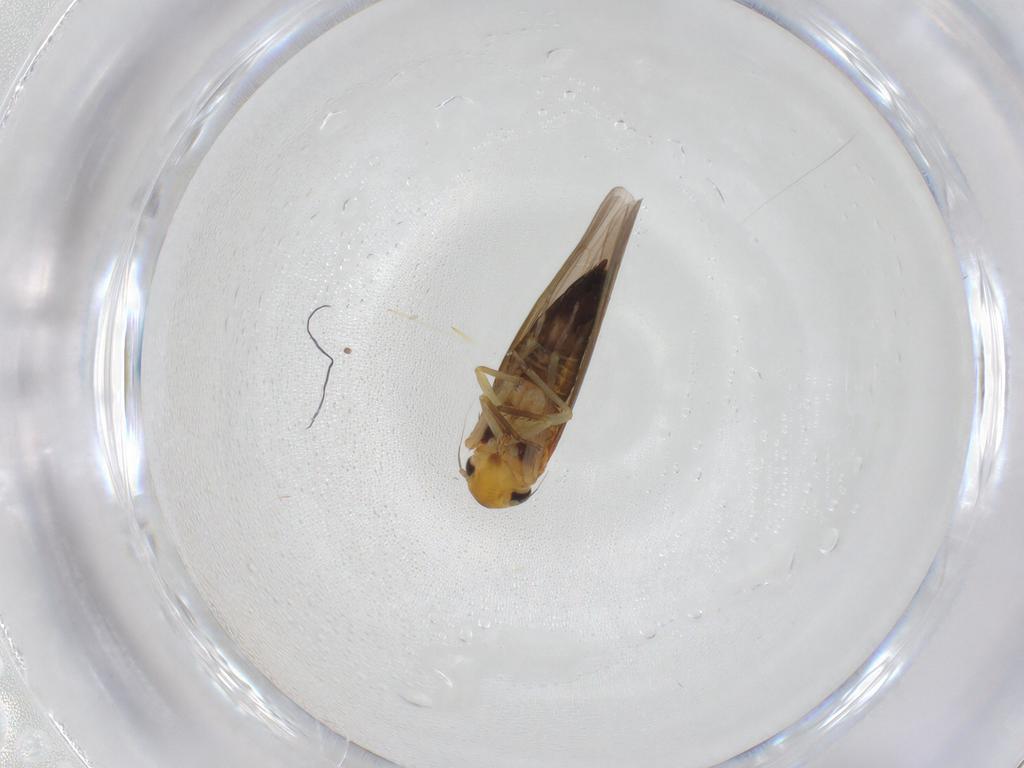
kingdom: Animalia
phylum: Arthropoda
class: Insecta
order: Hemiptera
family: Cicadellidae
